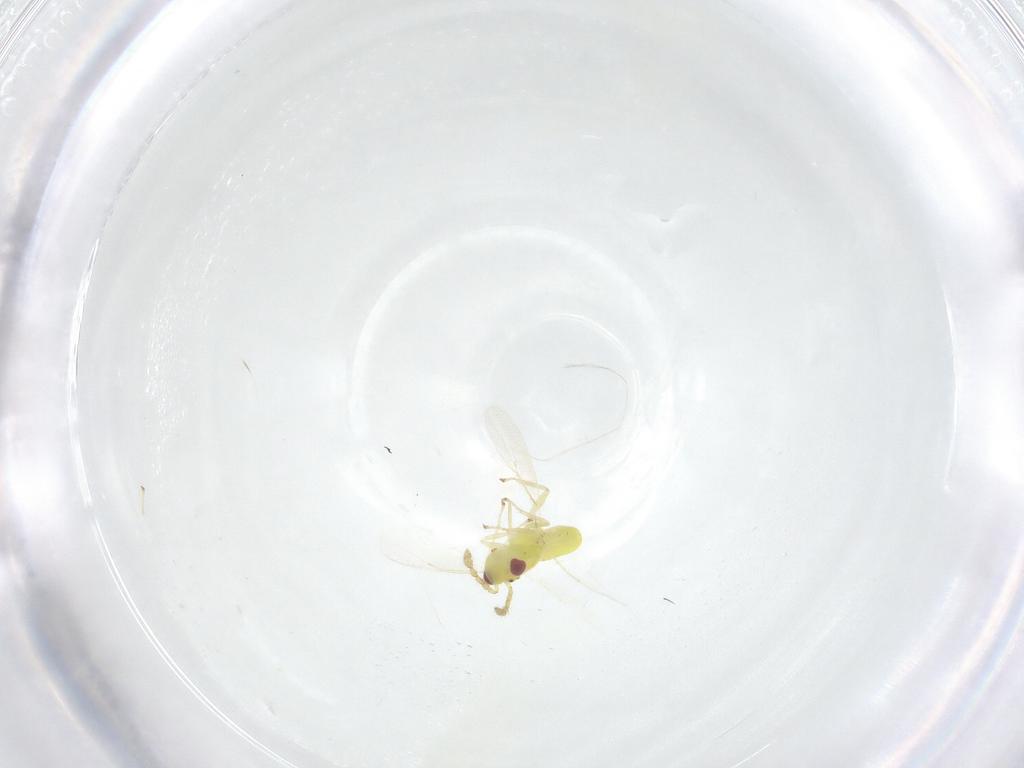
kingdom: Animalia
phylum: Arthropoda
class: Insecta
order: Hymenoptera
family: Eulophidae
